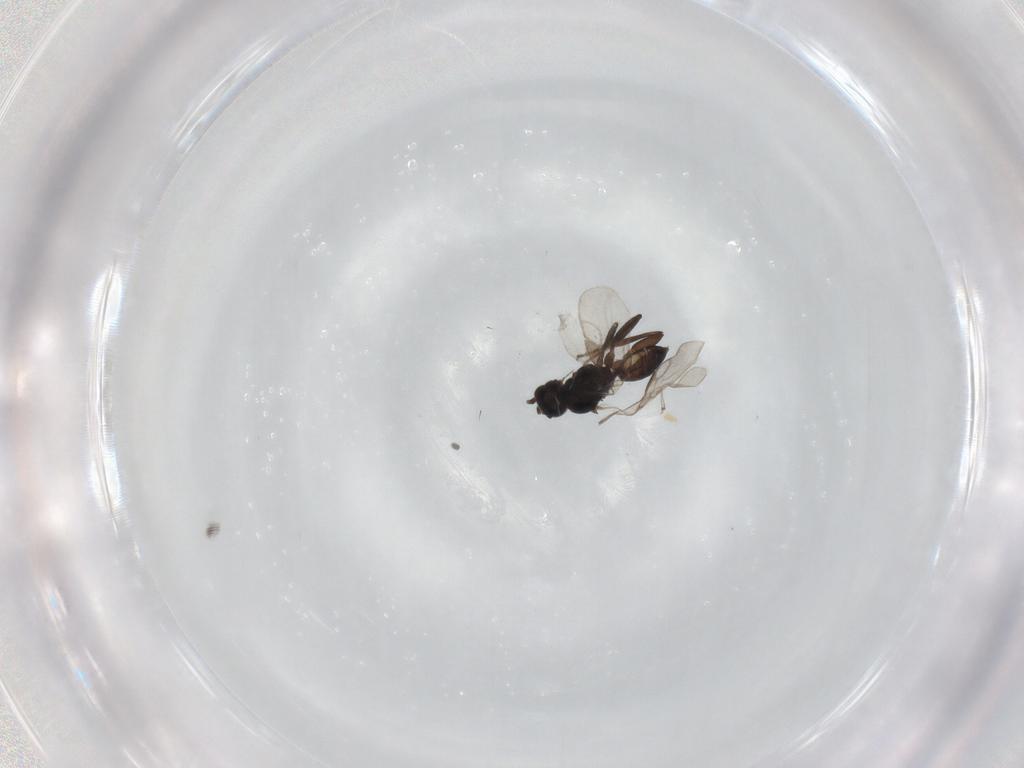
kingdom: Animalia
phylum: Arthropoda
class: Insecta
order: Hymenoptera
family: Braconidae
